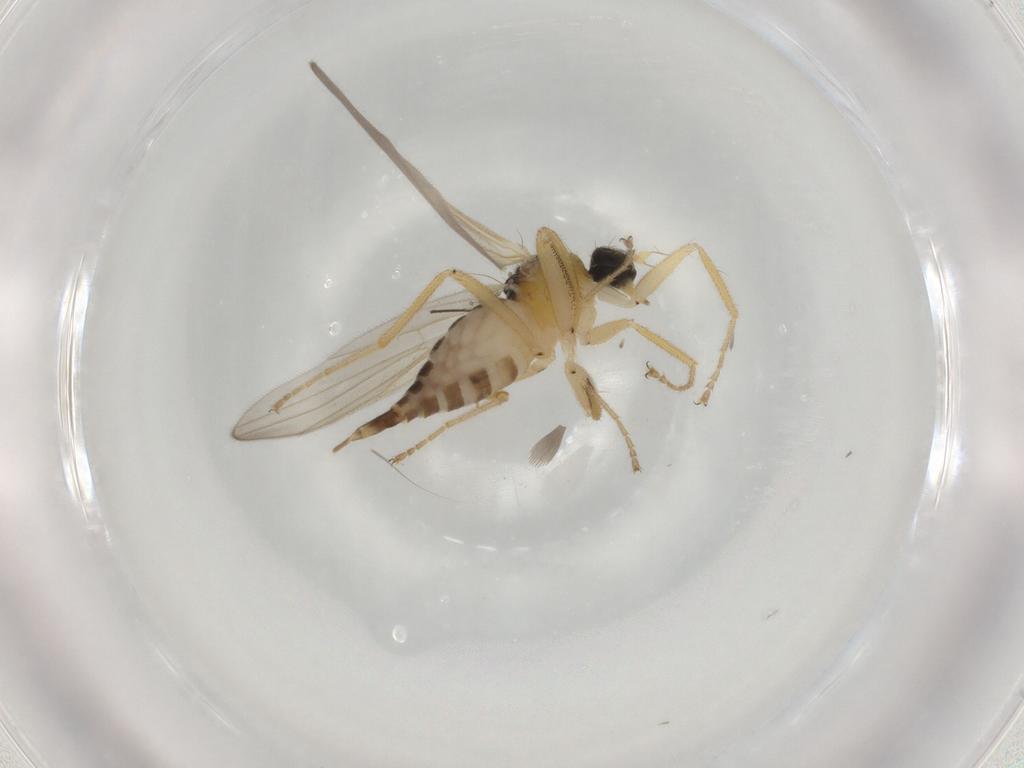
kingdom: Animalia
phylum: Arthropoda
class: Insecta
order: Diptera
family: Hybotidae
